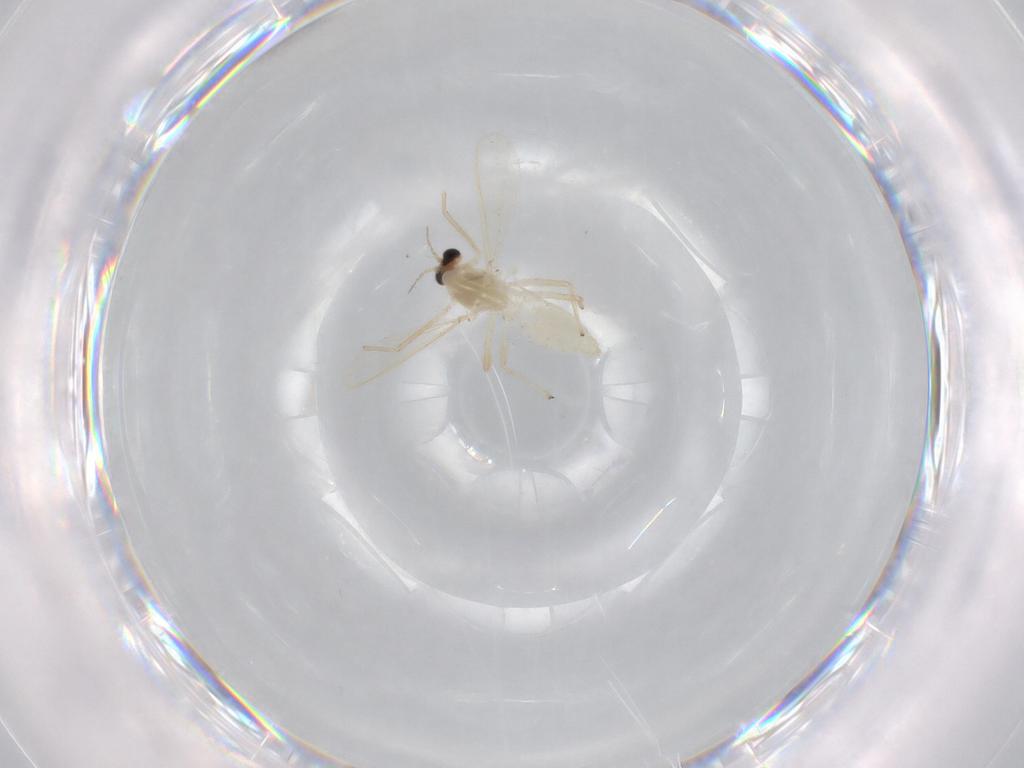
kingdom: Animalia
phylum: Arthropoda
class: Insecta
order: Diptera
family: Chironomidae
